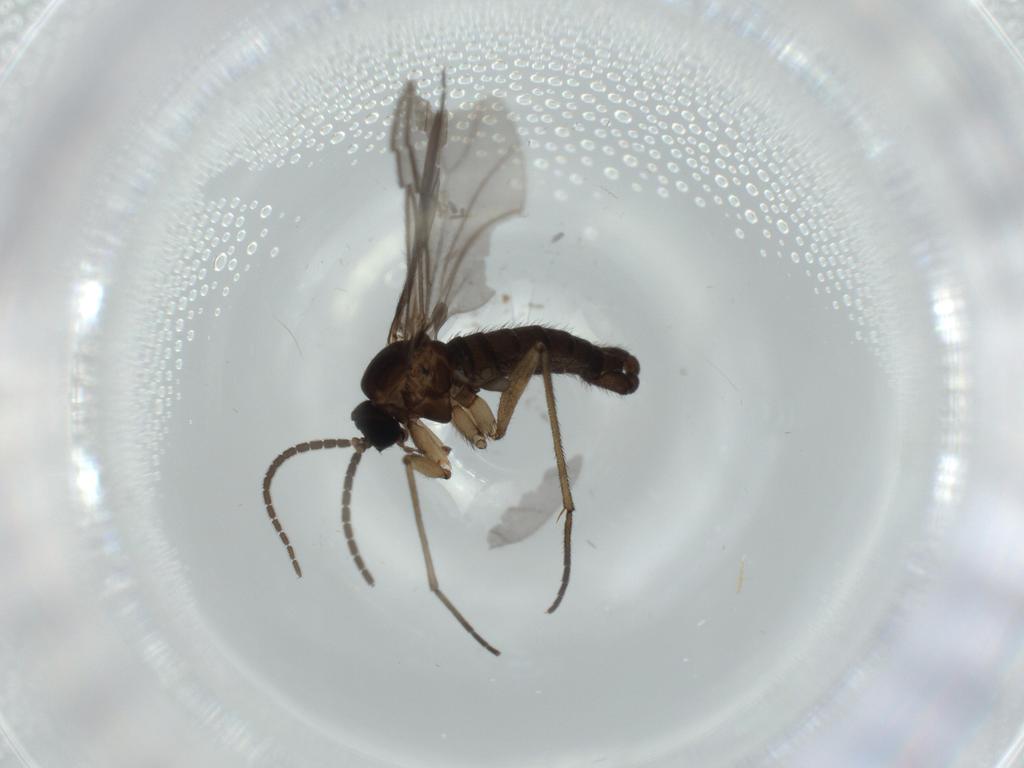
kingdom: Animalia
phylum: Arthropoda
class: Insecta
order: Diptera
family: Sciaridae
